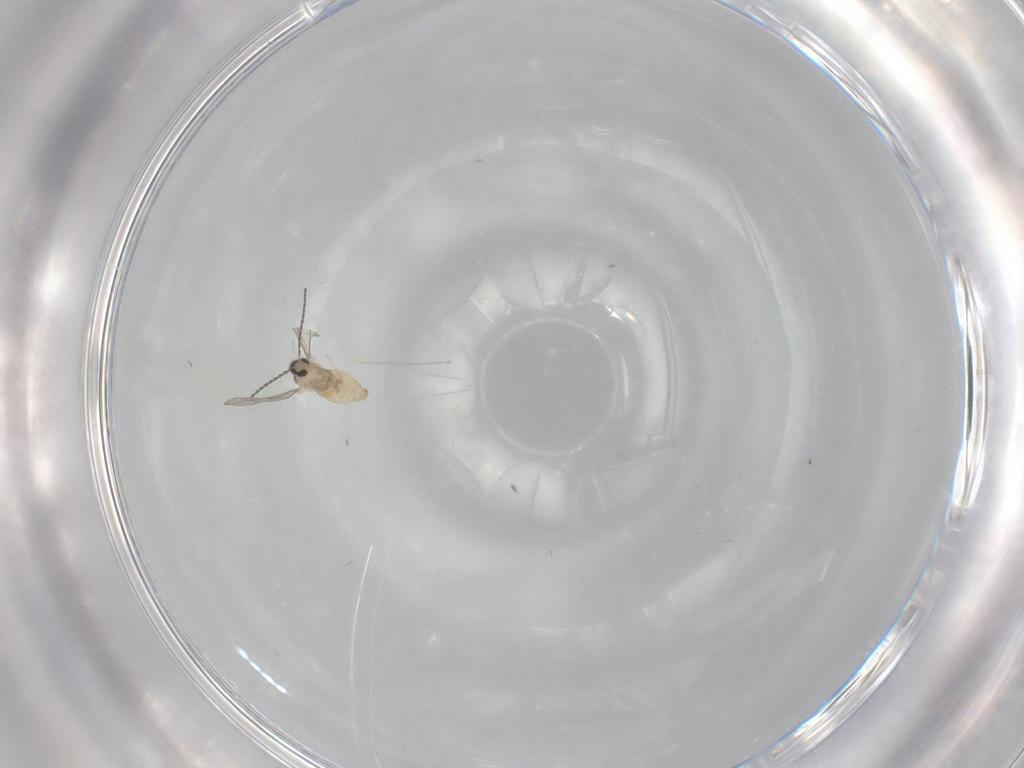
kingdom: Animalia
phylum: Arthropoda
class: Insecta
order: Diptera
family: Cecidomyiidae
